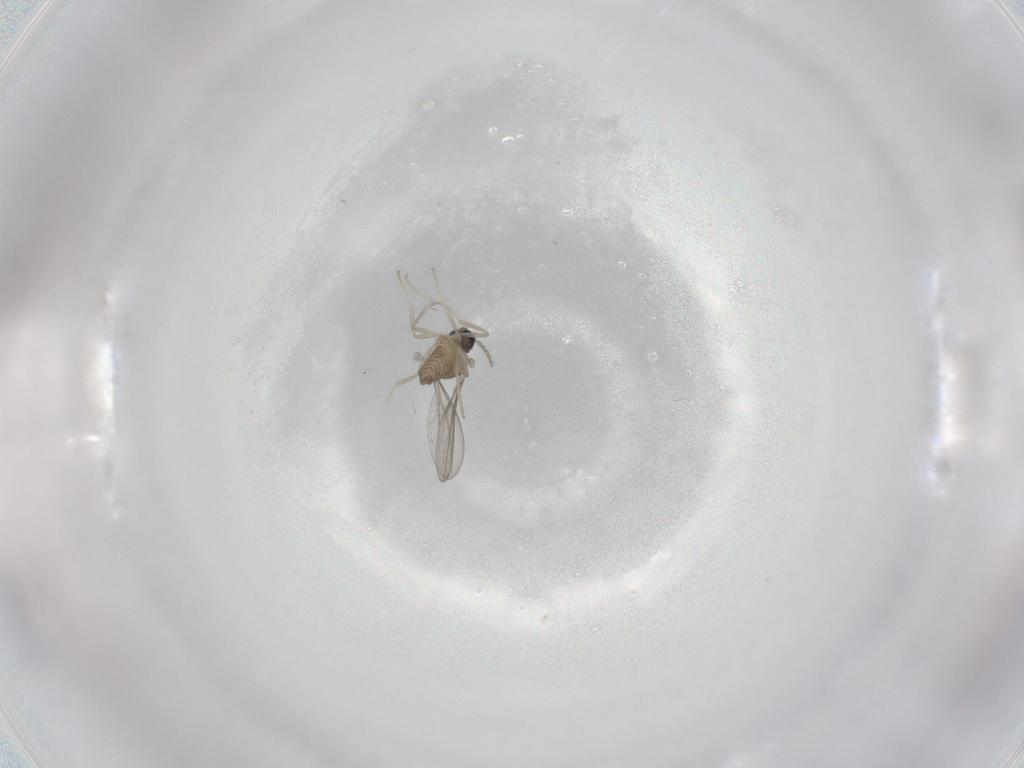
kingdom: Animalia
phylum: Arthropoda
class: Insecta
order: Diptera
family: Cecidomyiidae
